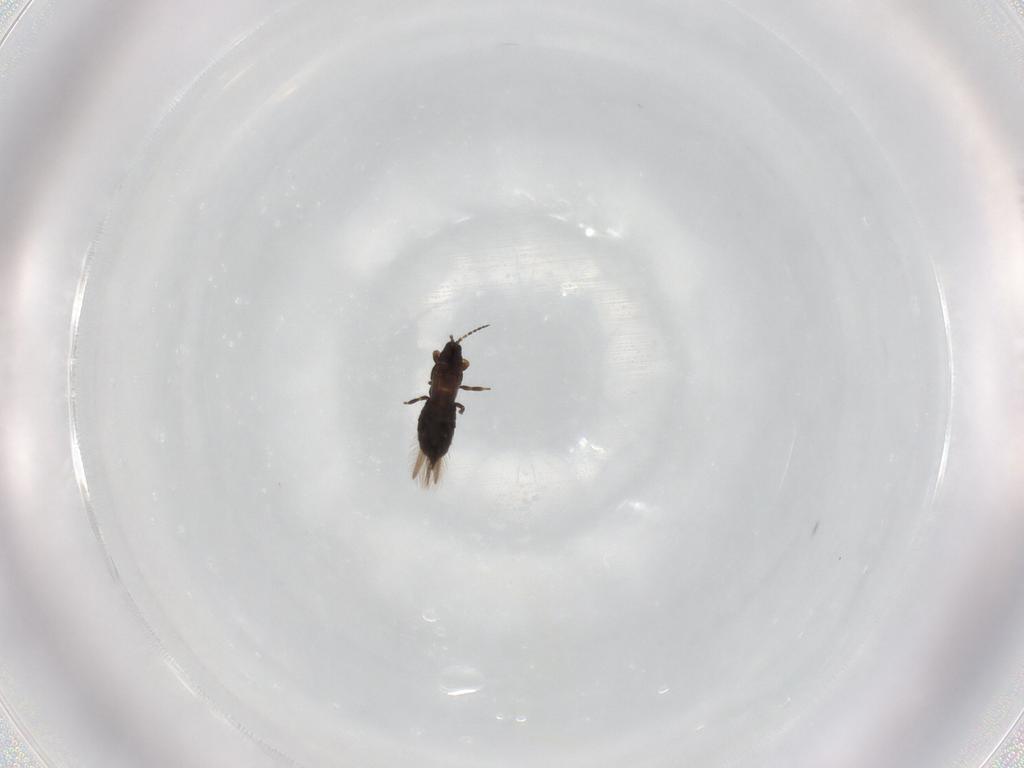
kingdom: Animalia
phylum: Arthropoda
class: Insecta
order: Thysanoptera
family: Heterothripidae
